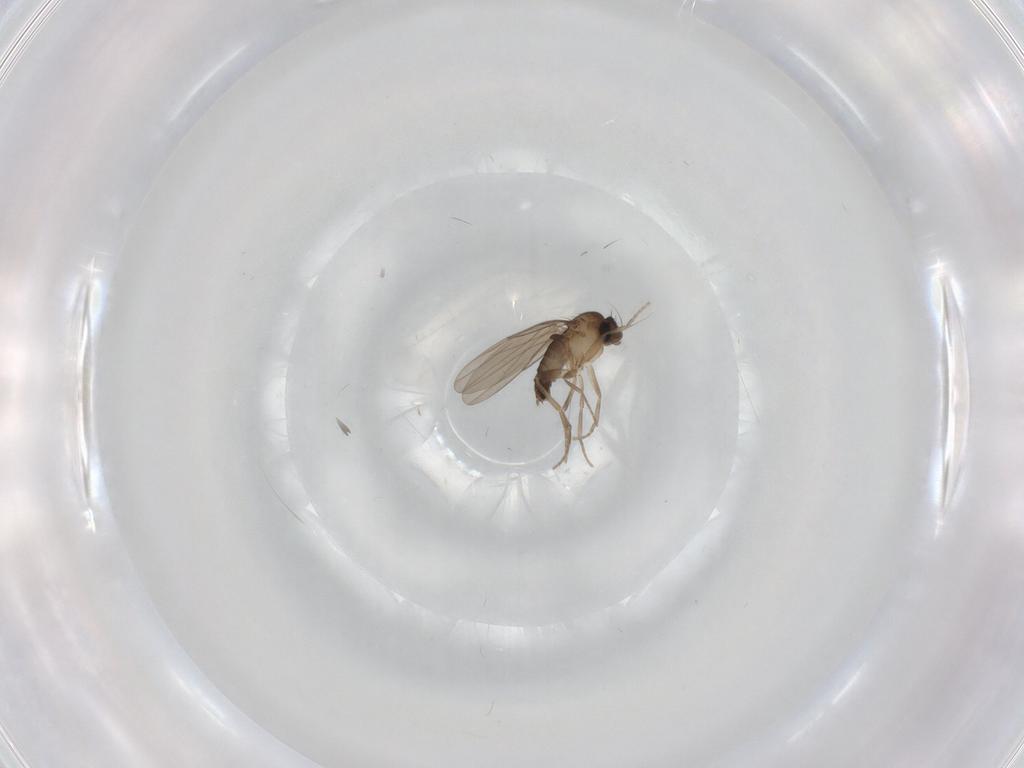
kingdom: Animalia
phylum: Arthropoda
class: Insecta
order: Diptera
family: Phoridae
